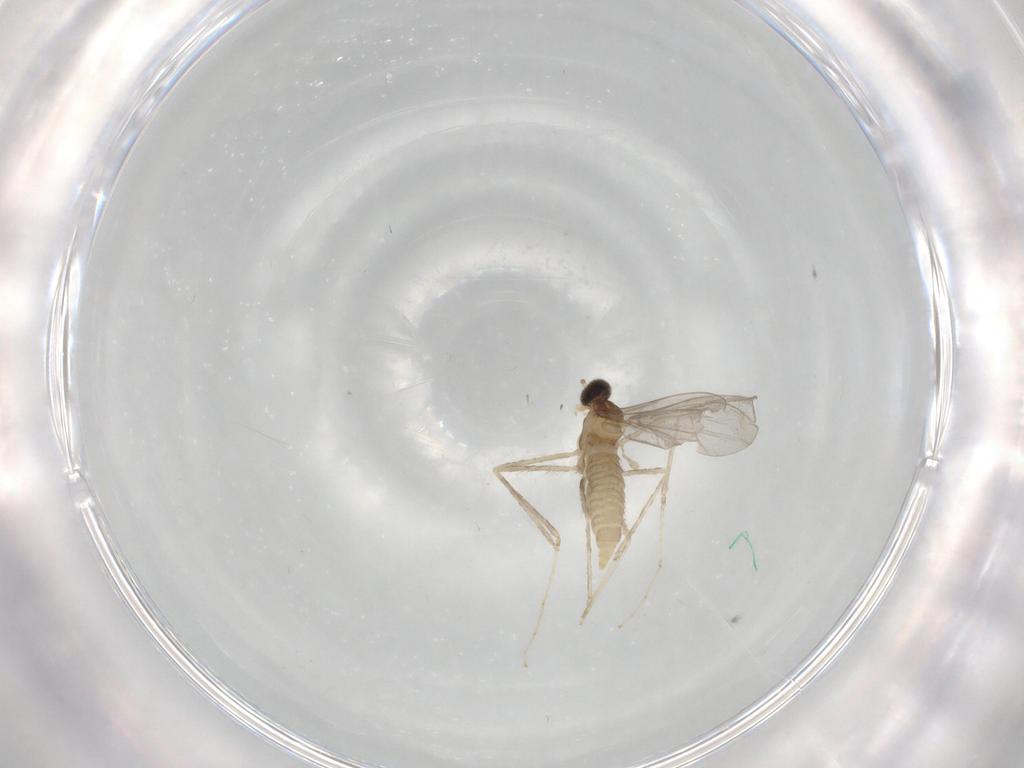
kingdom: Animalia
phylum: Arthropoda
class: Insecta
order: Diptera
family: Cecidomyiidae
